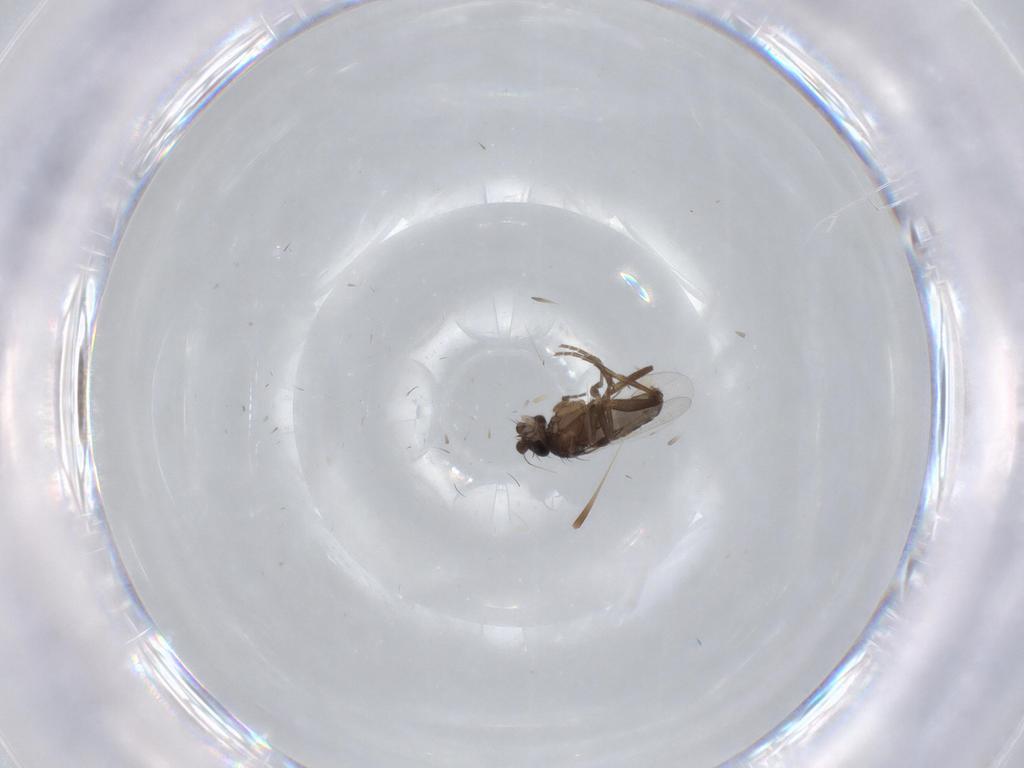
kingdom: Animalia
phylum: Arthropoda
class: Insecta
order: Diptera
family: Phoridae
